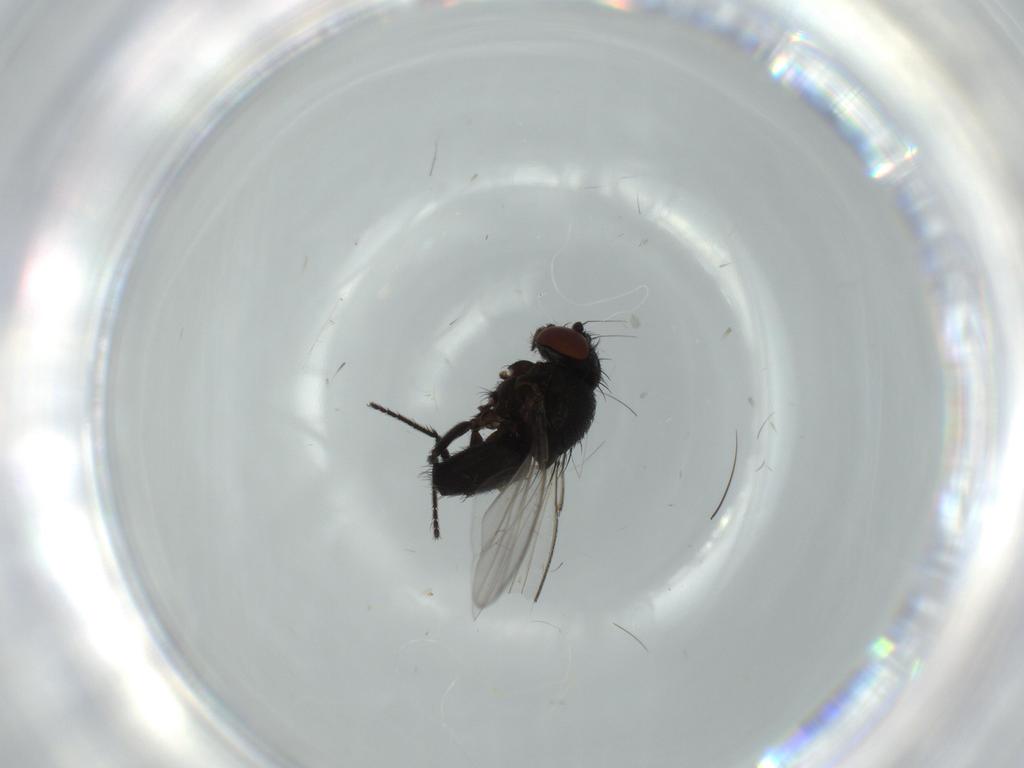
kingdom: Animalia
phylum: Arthropoda
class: Insecta
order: Diptera
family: Milichiidae
